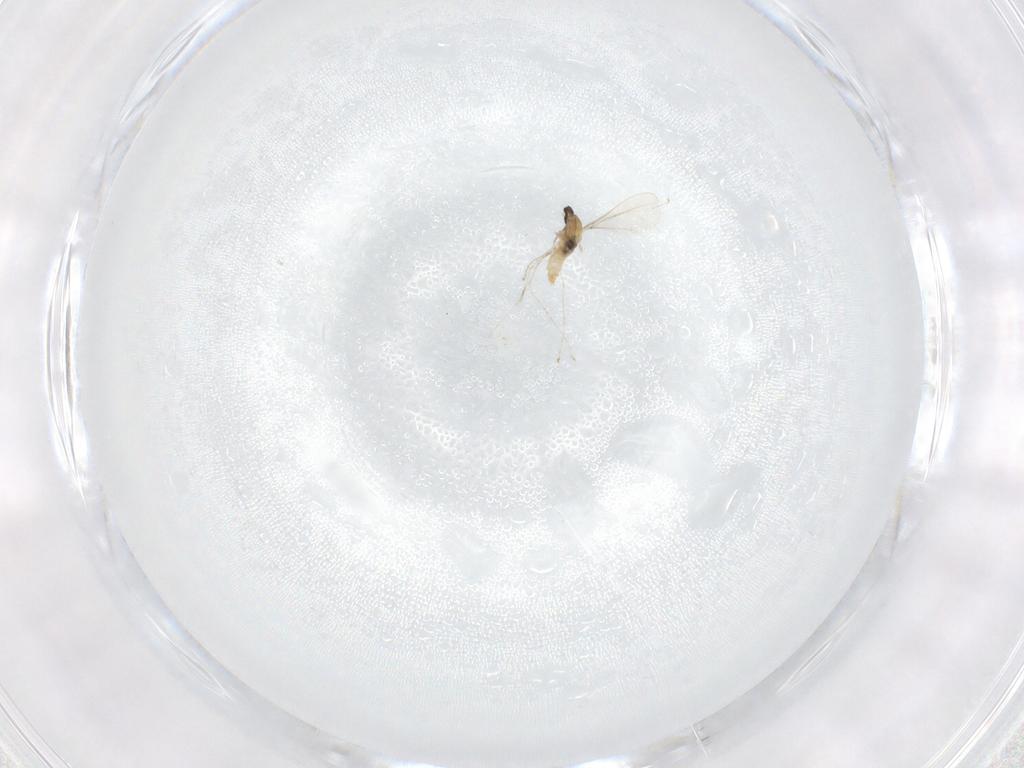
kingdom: Animalia
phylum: Arthropoda
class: Insecta
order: Diptera
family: Cecidomyiidae
